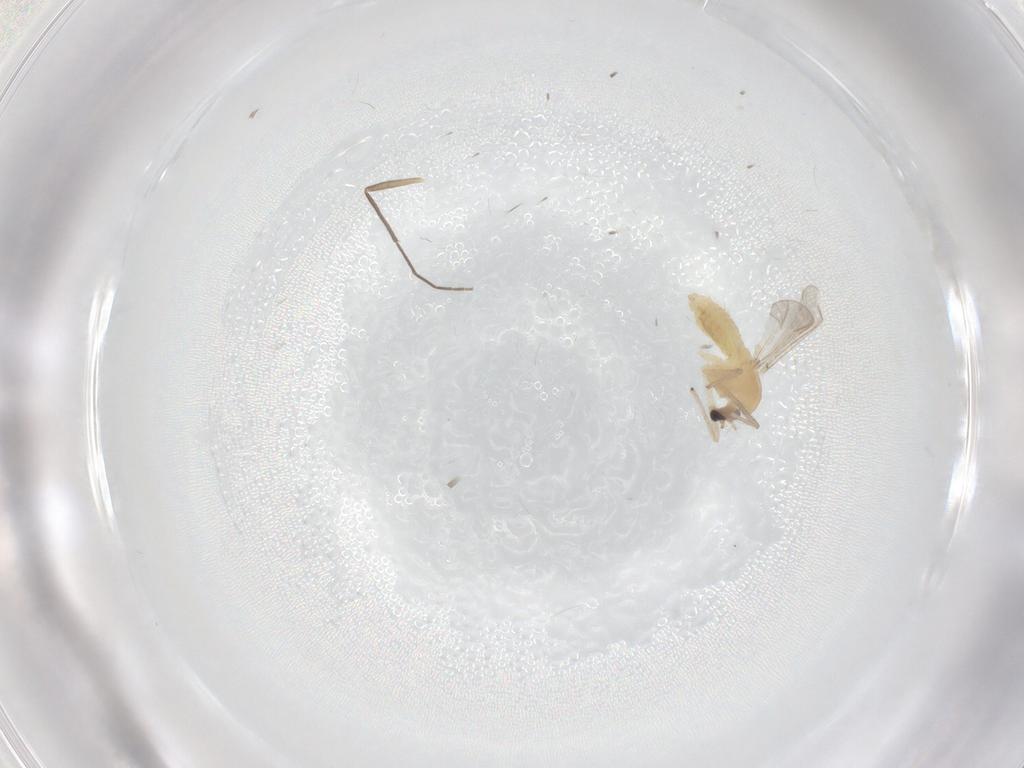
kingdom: Animalia
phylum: Arthropoda
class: Insecta
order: Diptera
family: Chironomidae
